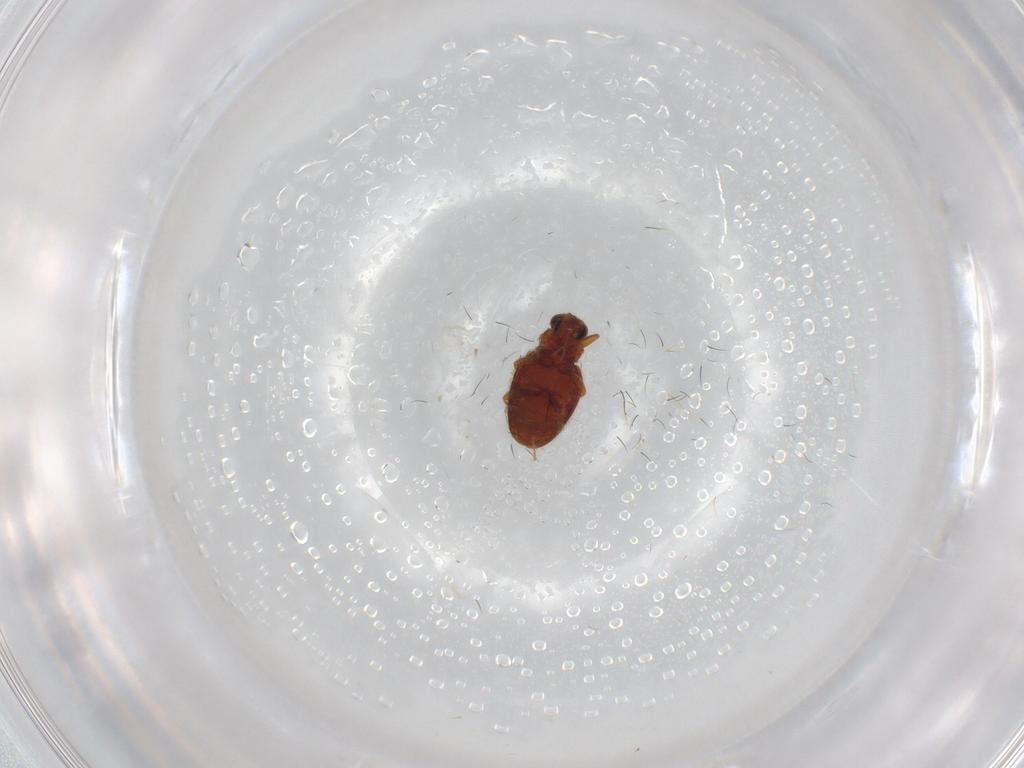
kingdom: Animalia
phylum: Arthropoda
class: Insecta
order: Coleoptera
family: Latridiidae
